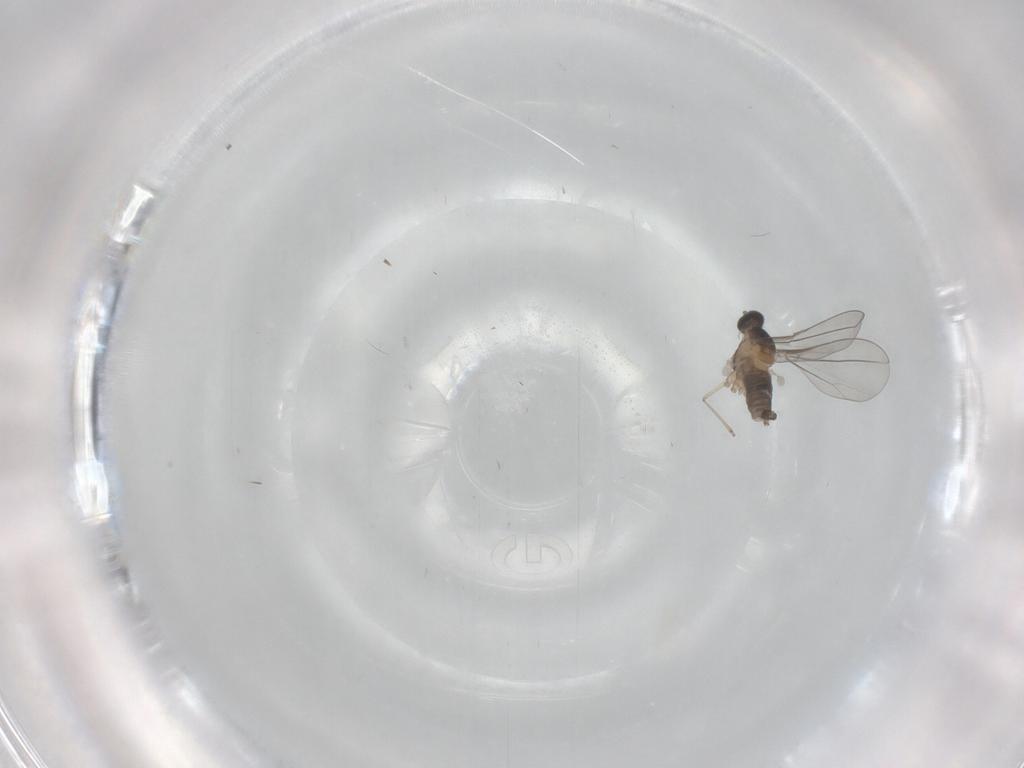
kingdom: Animalia
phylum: Arthropoda
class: Insecta
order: Diptera
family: Cecidomyiidae
